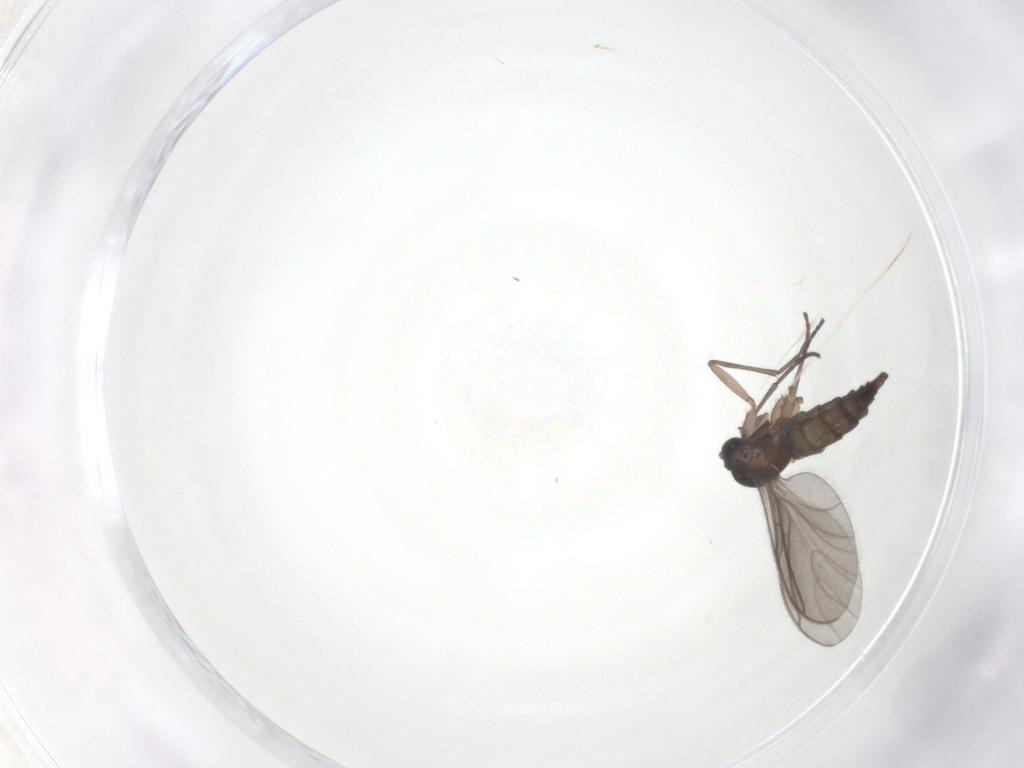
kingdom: Animalia
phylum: Arthropoda
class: Insecta
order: Diptera
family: Sciaridae
